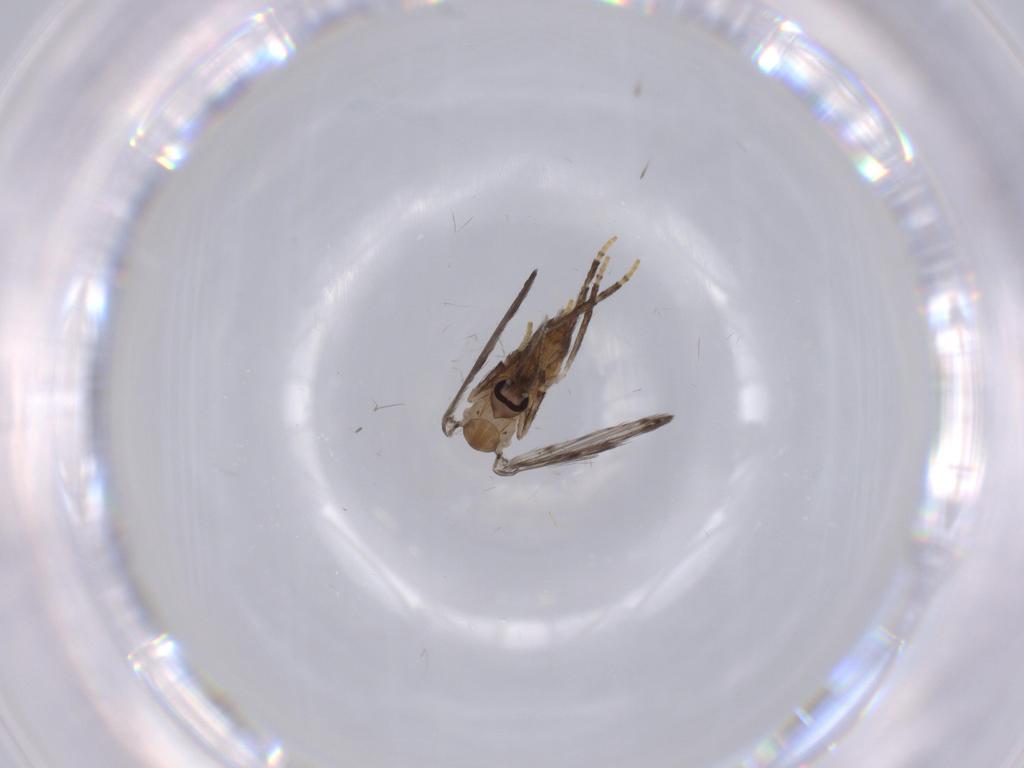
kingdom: Animalia
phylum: Arthropoda
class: Insecta
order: Diptera
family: Psychodidae
